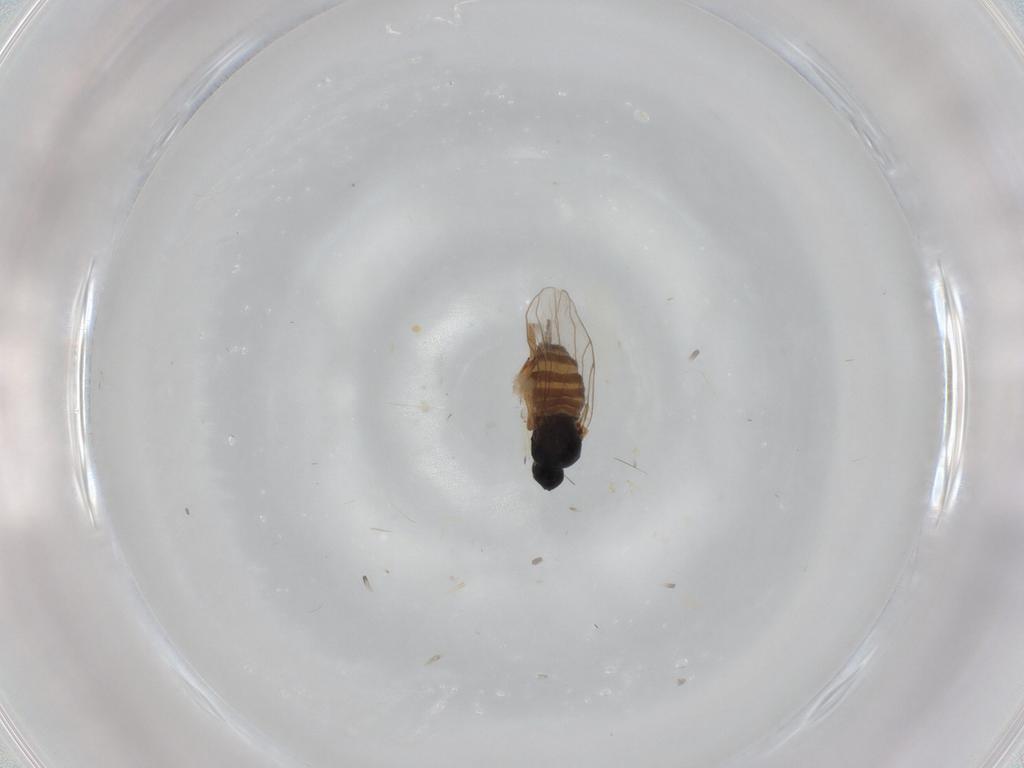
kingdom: Animalia
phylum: Arthropoda
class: Insecta
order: Diptera
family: Hybotidae
